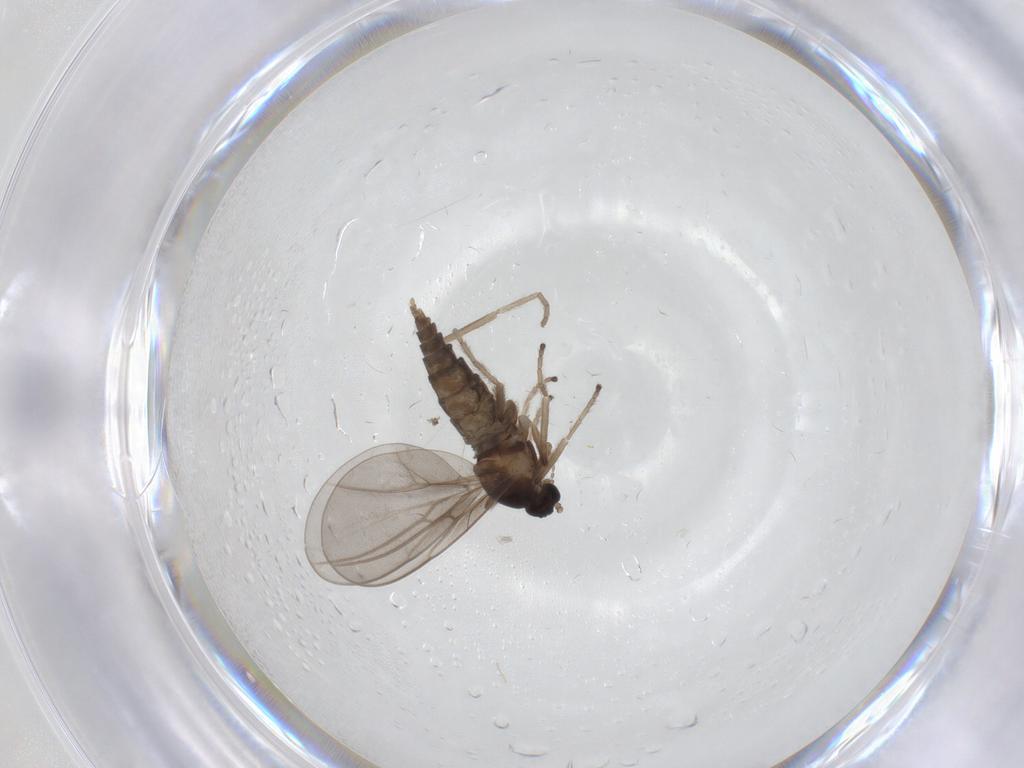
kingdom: Animalia
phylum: Arthropoda
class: Insecta
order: Diptera
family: Cecidomyiidae
